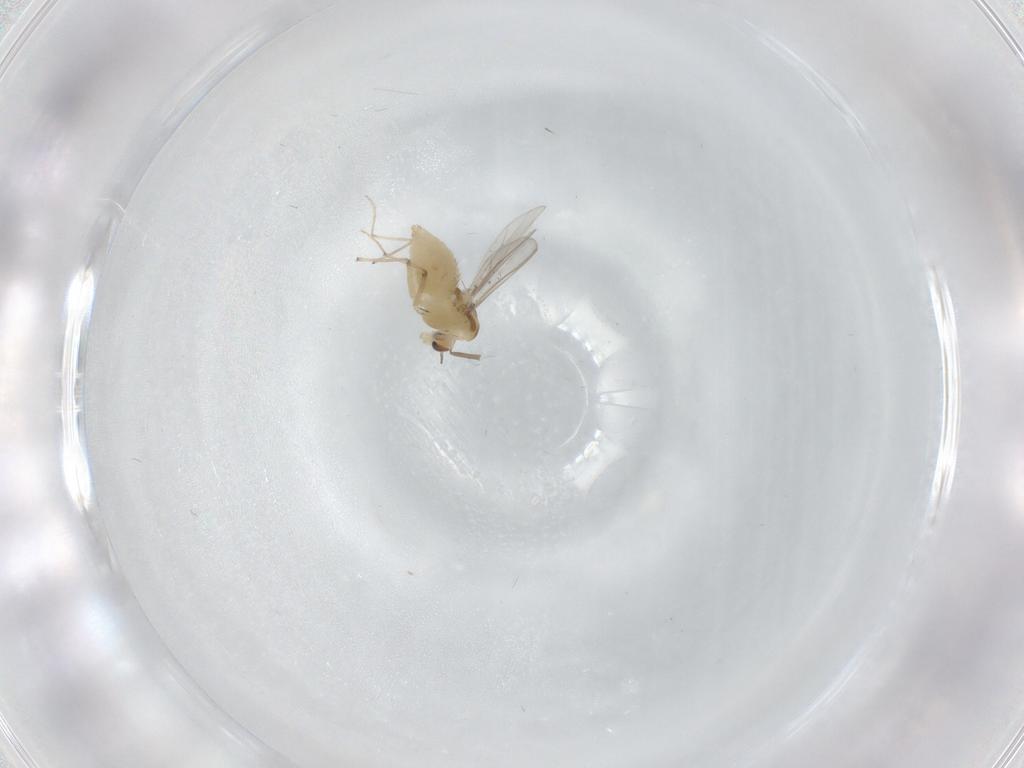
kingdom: Animalia
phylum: Arthropoda
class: Insecta
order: Diptera
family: Chironomidae
